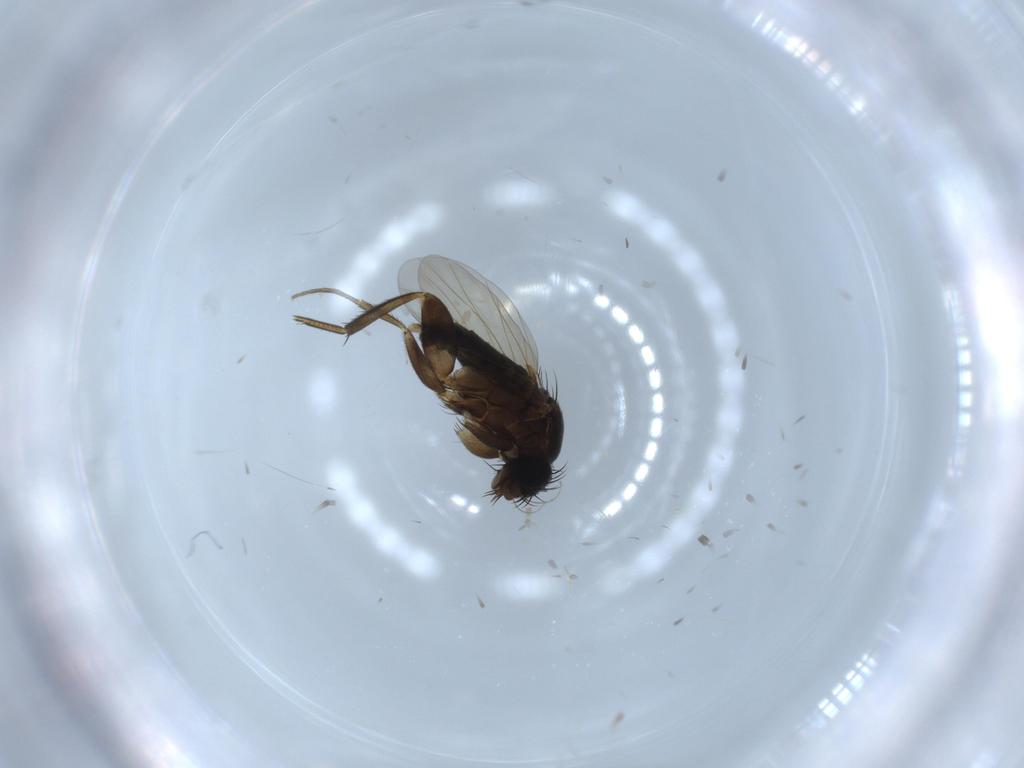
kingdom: Animalia
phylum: Arthropoda
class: Insecta
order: Diptera
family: Phoridae
